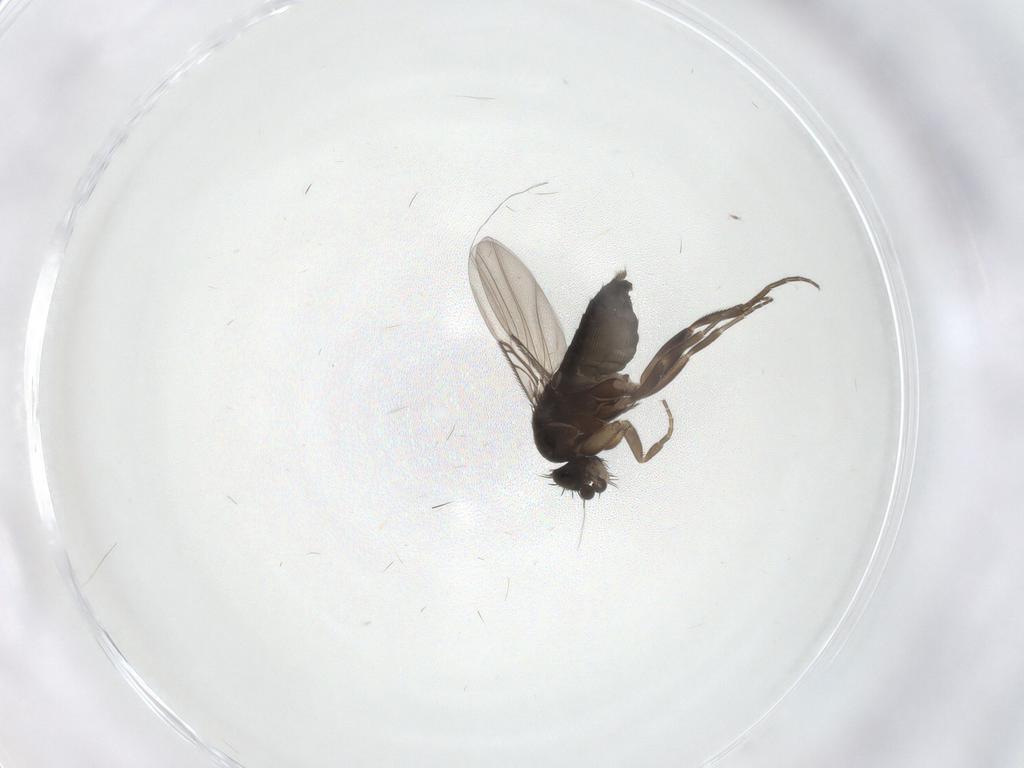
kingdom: Animalia
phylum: Arthropoda
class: Insecta
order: Diptera
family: Phoridae
